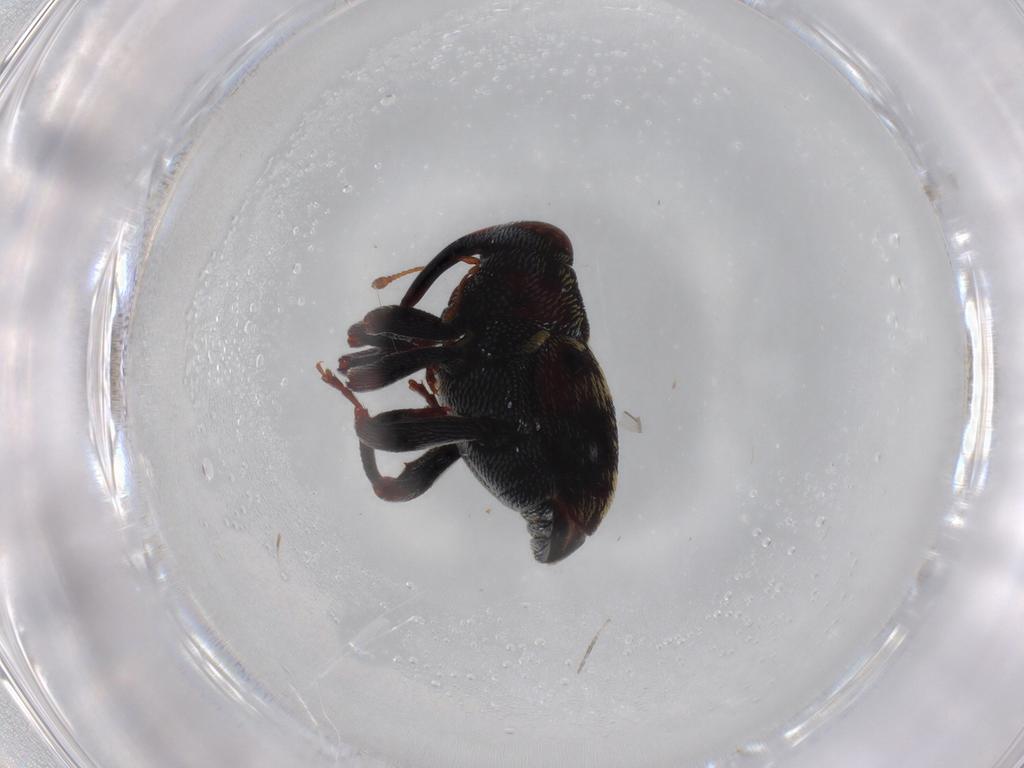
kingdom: Animalia
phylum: Arthropoda
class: Insecta
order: Coleoptera
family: Curculionidae
